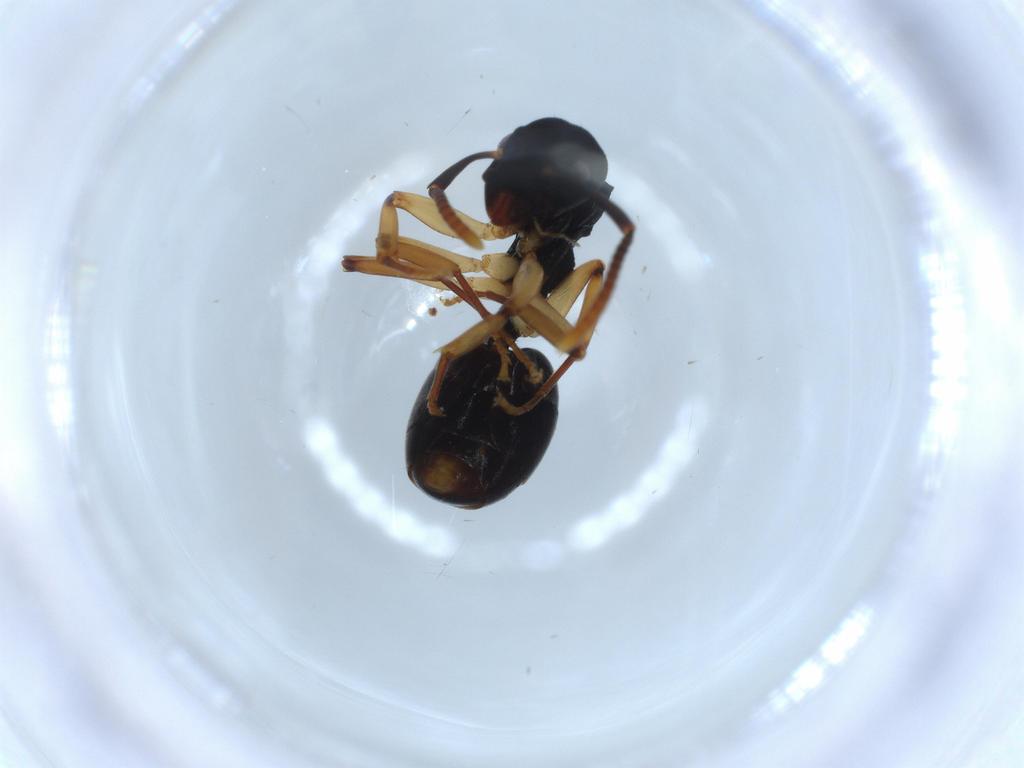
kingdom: Animalia
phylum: Arthropoda
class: Insecta
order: Hymenoptera
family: Formicidae
